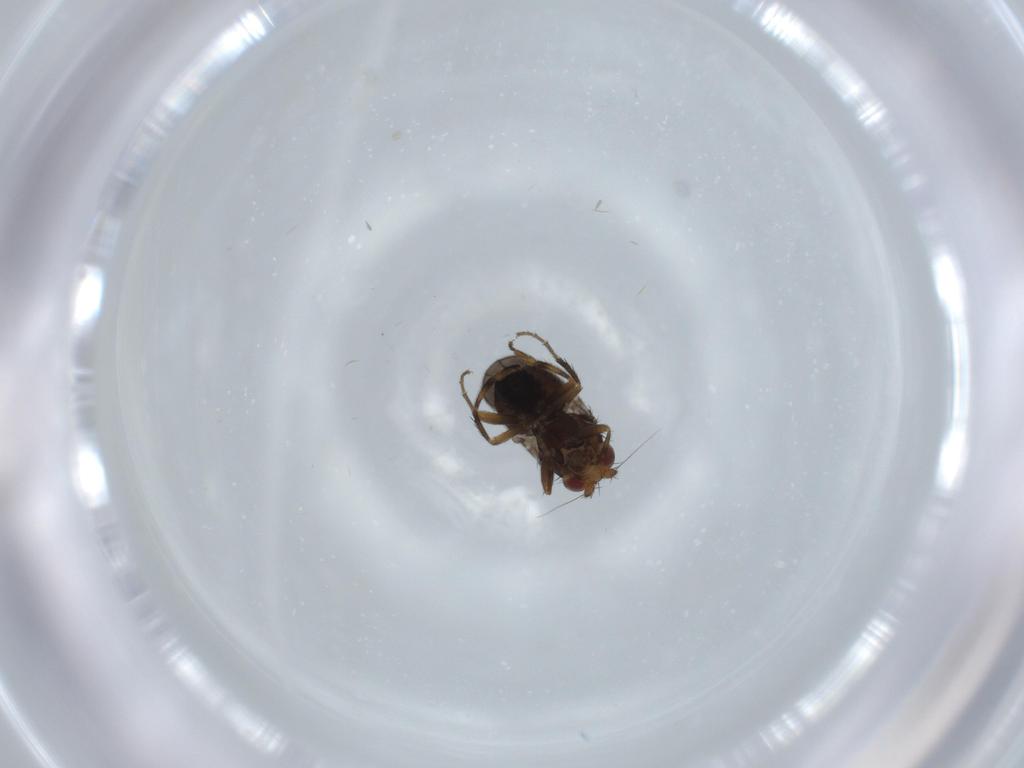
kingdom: Animalia
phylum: Arthropoda
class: Insecta
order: Diptera
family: Sphaeroceridae
